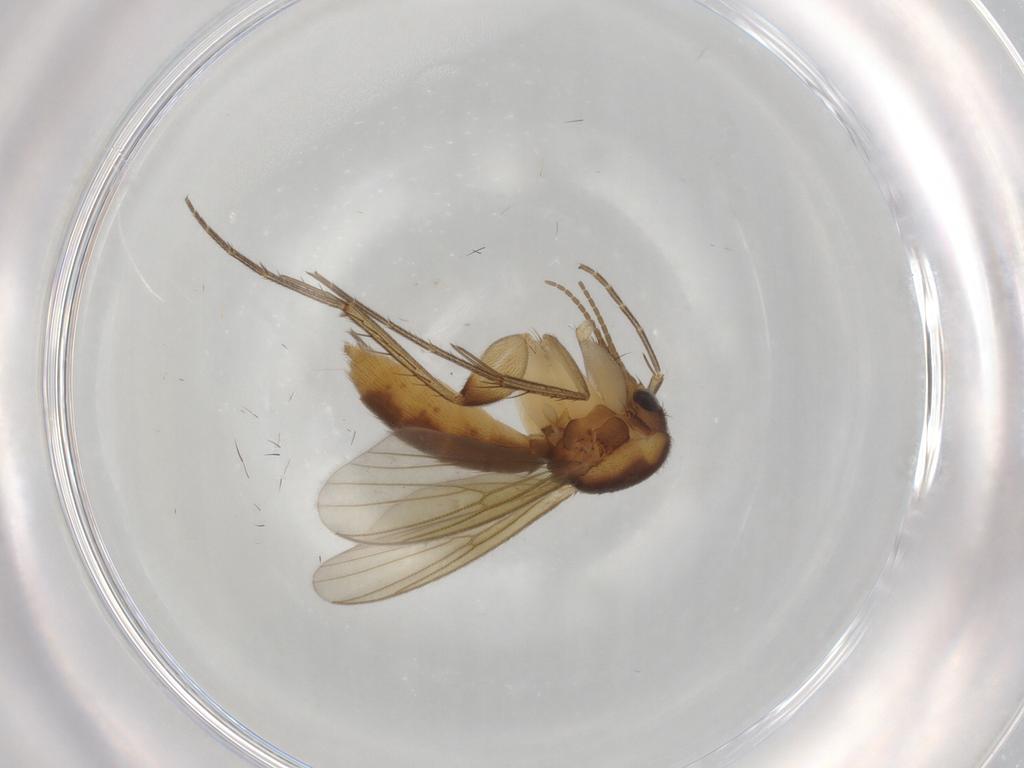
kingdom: Animalia
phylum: Arthropoda
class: Insecta
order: Diptera
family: Mycetophilidae
